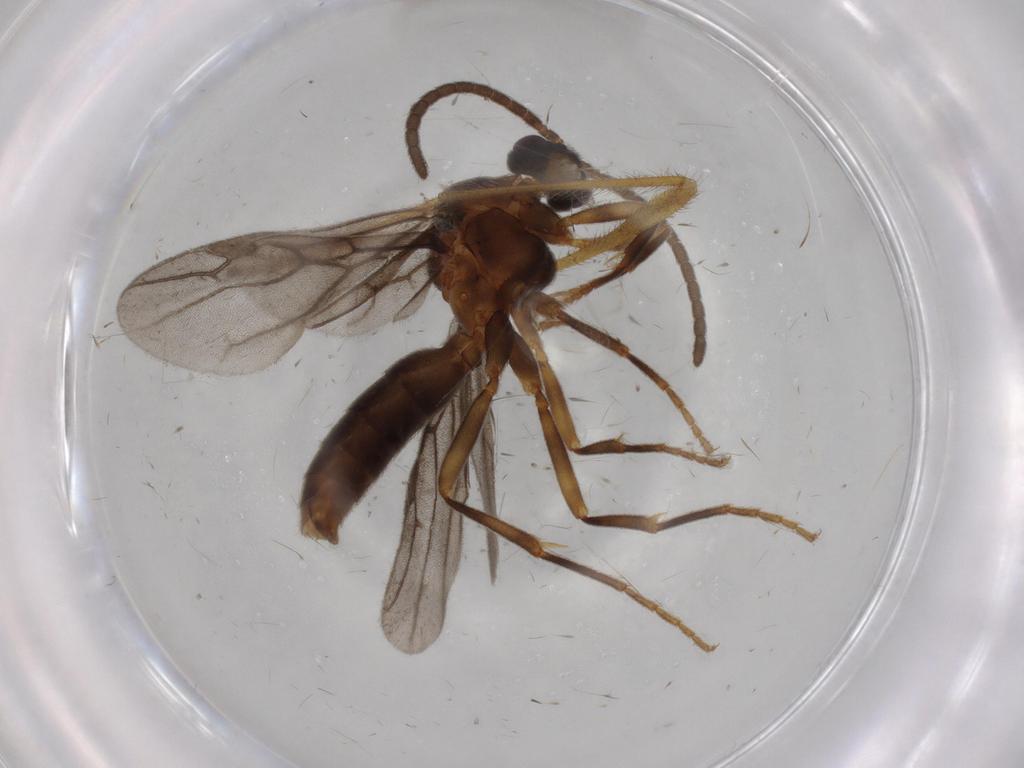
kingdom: Animalia
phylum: Arthropoda
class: Insecta
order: Hymenoptera
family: Formicidae
